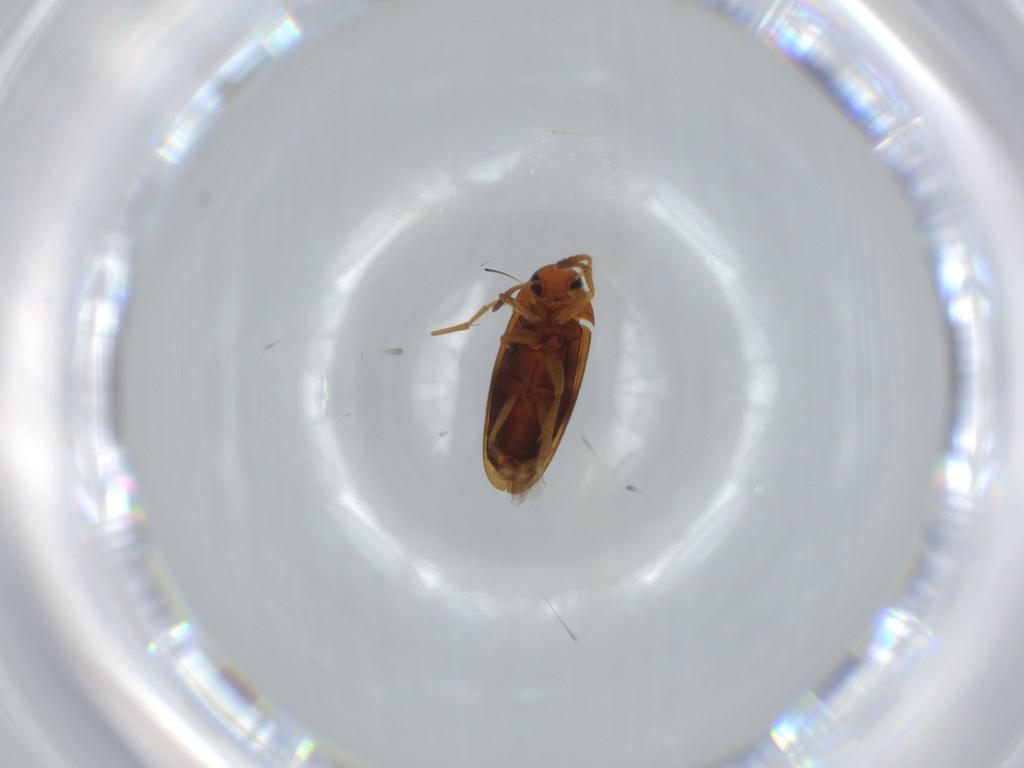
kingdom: Animalia
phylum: Arthropoda
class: Insecta
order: Coleoptera
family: Scraptiidae
